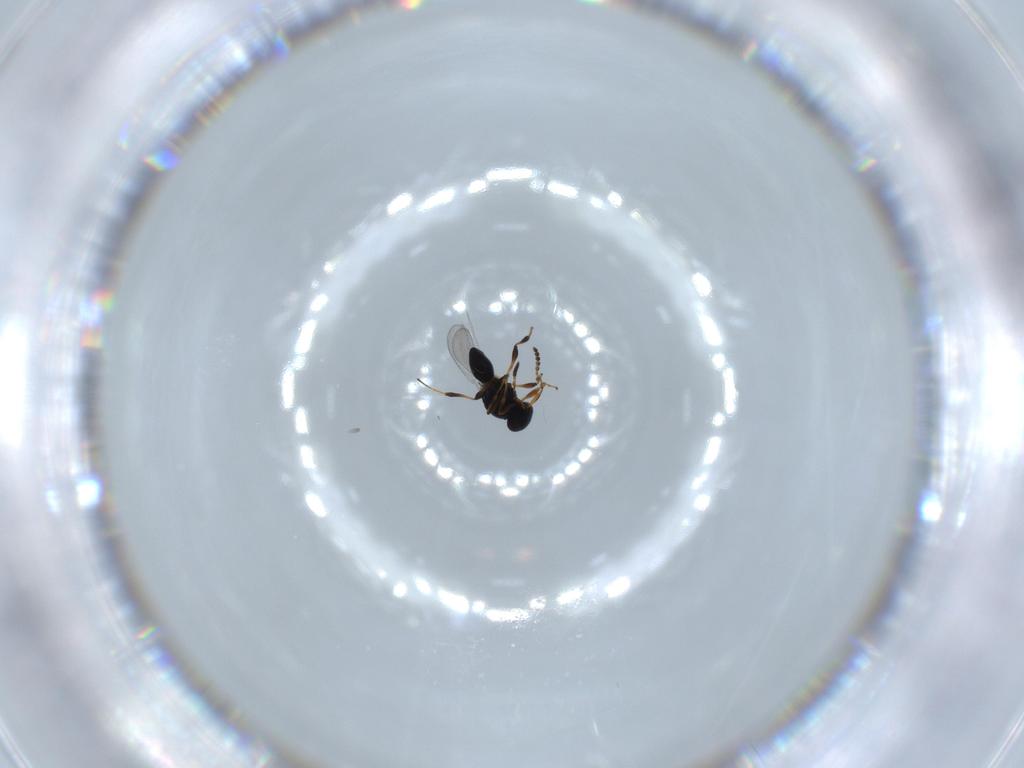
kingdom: Animalia
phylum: Arthropoda
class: Insecta
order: Hymenoptera
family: Platygastridae
